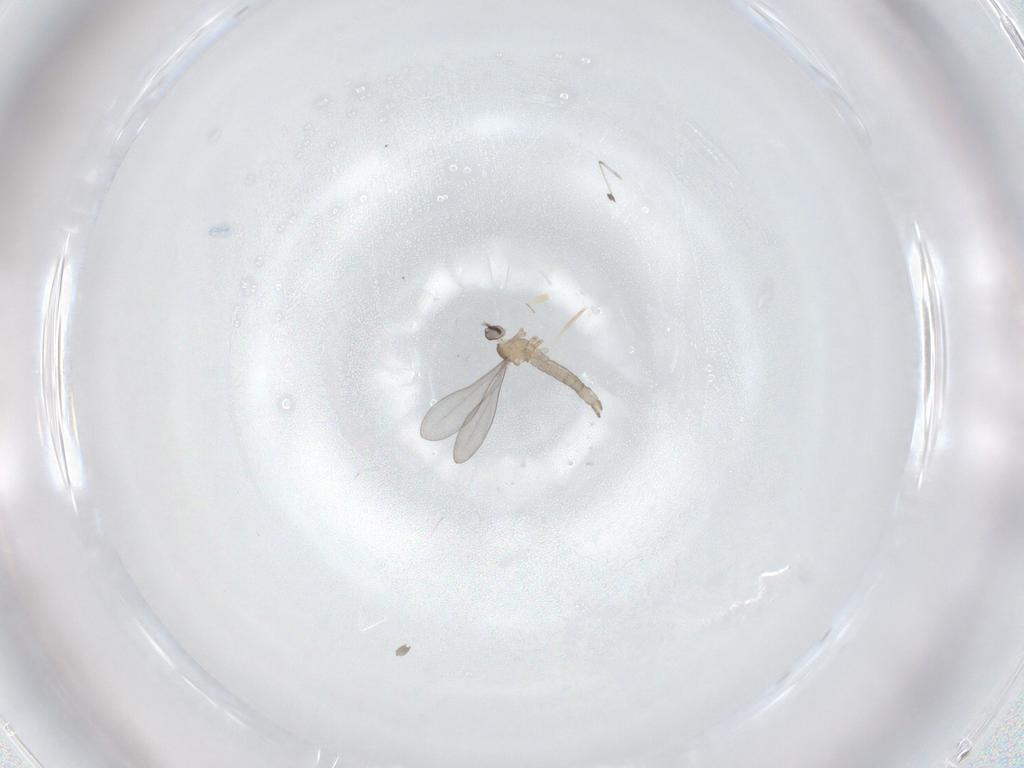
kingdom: Animalia
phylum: Arthropoda
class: Insecta
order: Diptera
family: Cecidomyiidae
